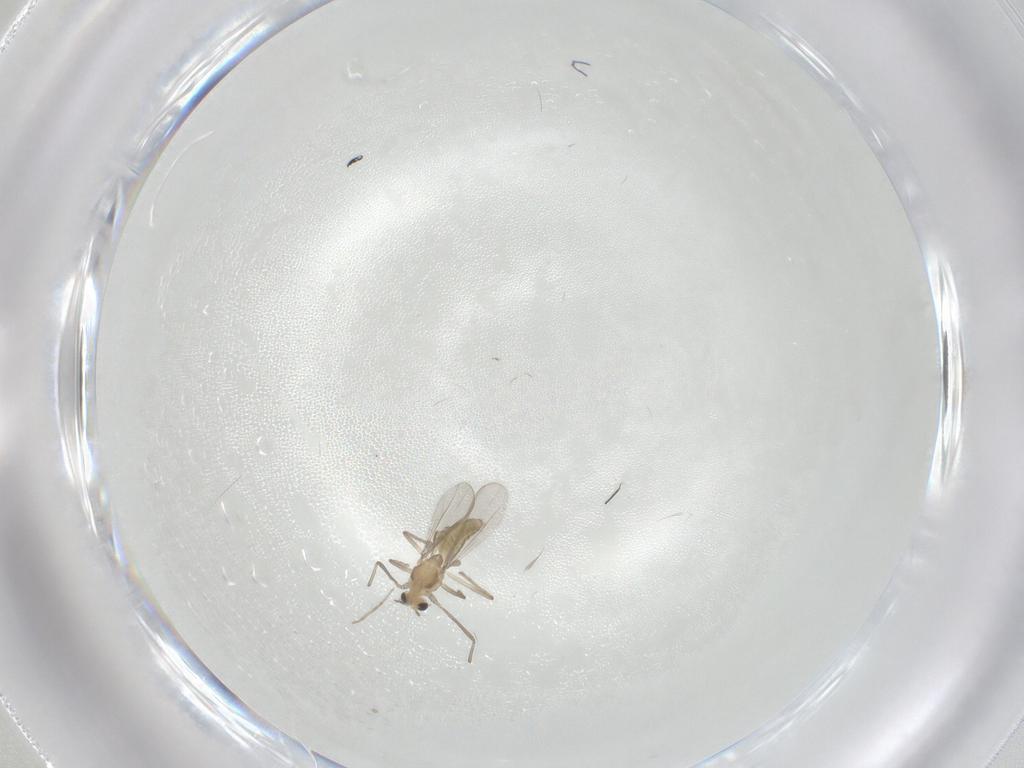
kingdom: Animalia
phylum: Arthropoda
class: Insecta
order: Diptera
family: Chironomidae
